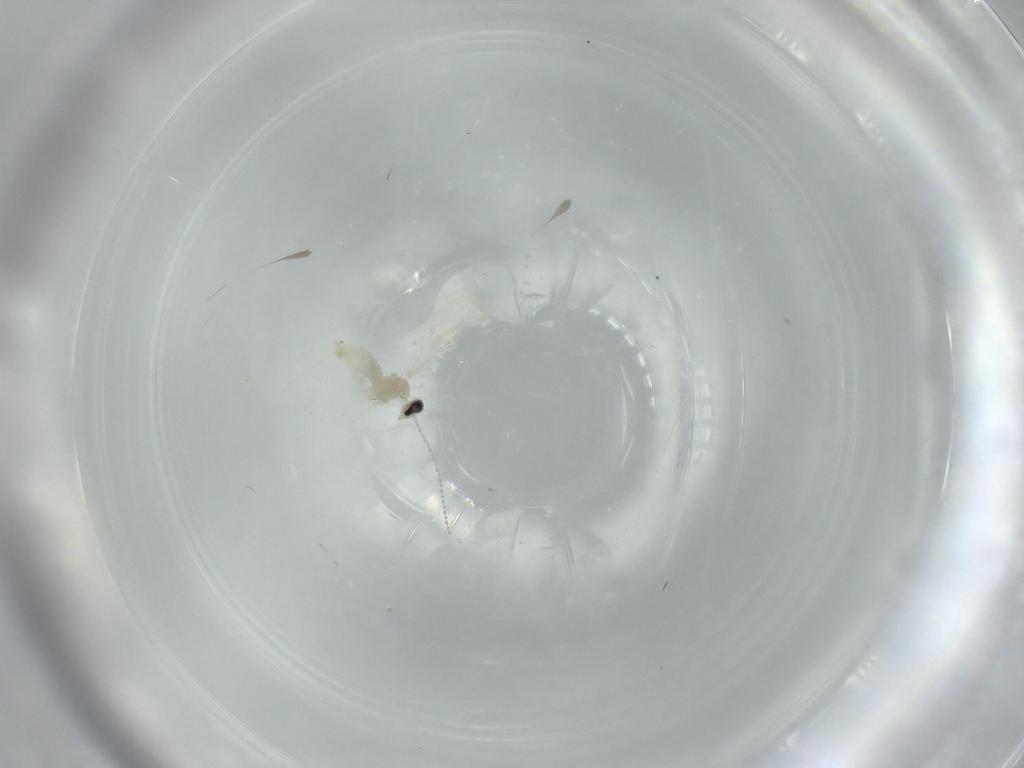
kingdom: Animalia
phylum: Arthropoda
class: Insecta
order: Diptera
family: Cecidomyiidae
